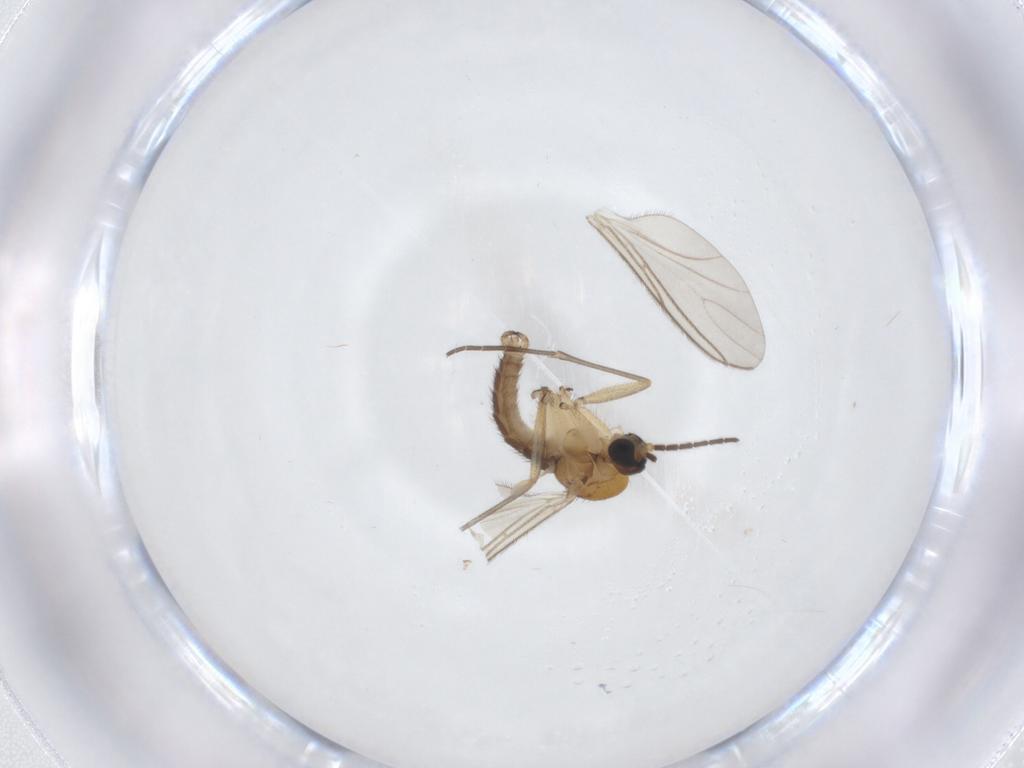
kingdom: Animalia
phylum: Arthropoda
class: Insecta
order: Diptera
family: Sciaridae
